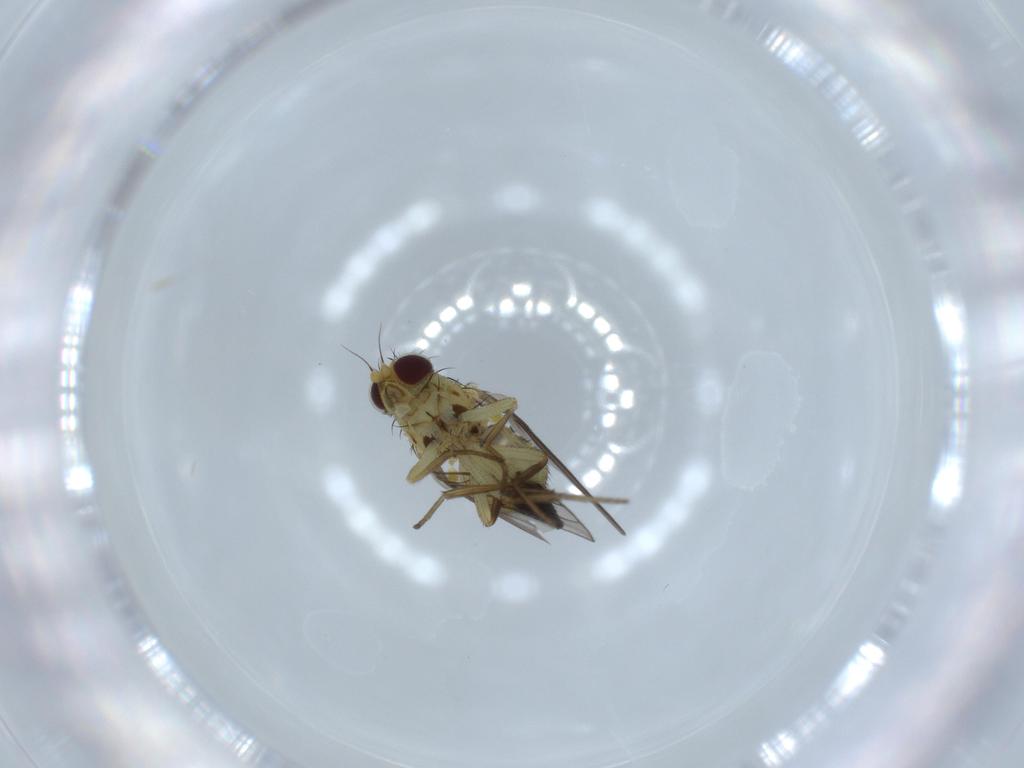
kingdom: Animalia
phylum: Arthropoda
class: Insecta
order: Diptera
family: Agromyzidae
